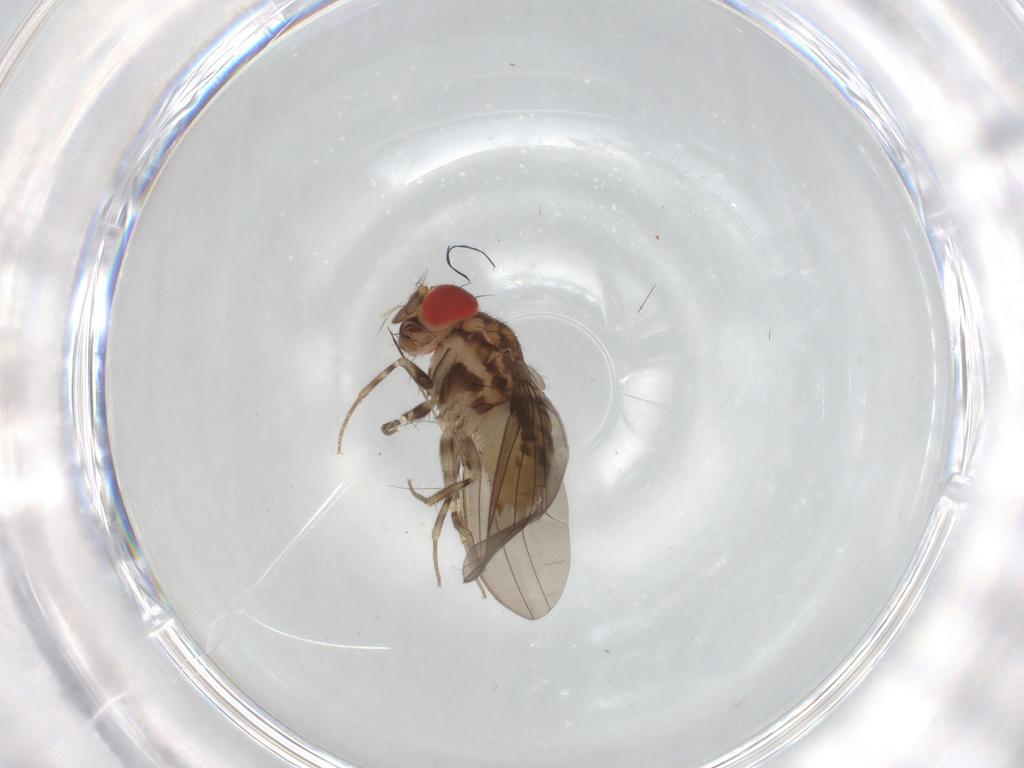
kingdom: Animalia
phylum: Arthropoda
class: Insecta
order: Diptera
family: Drosophilidae
